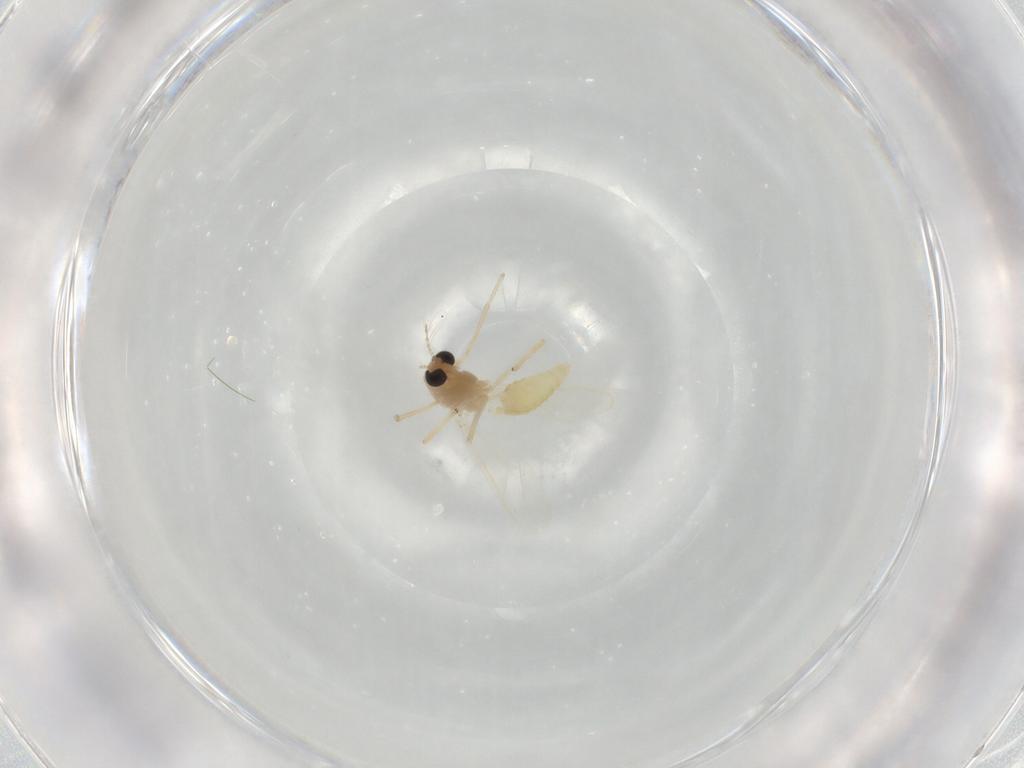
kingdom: Animalia
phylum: Arthropoda
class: Insecta
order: Diptera
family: Chironomidae
